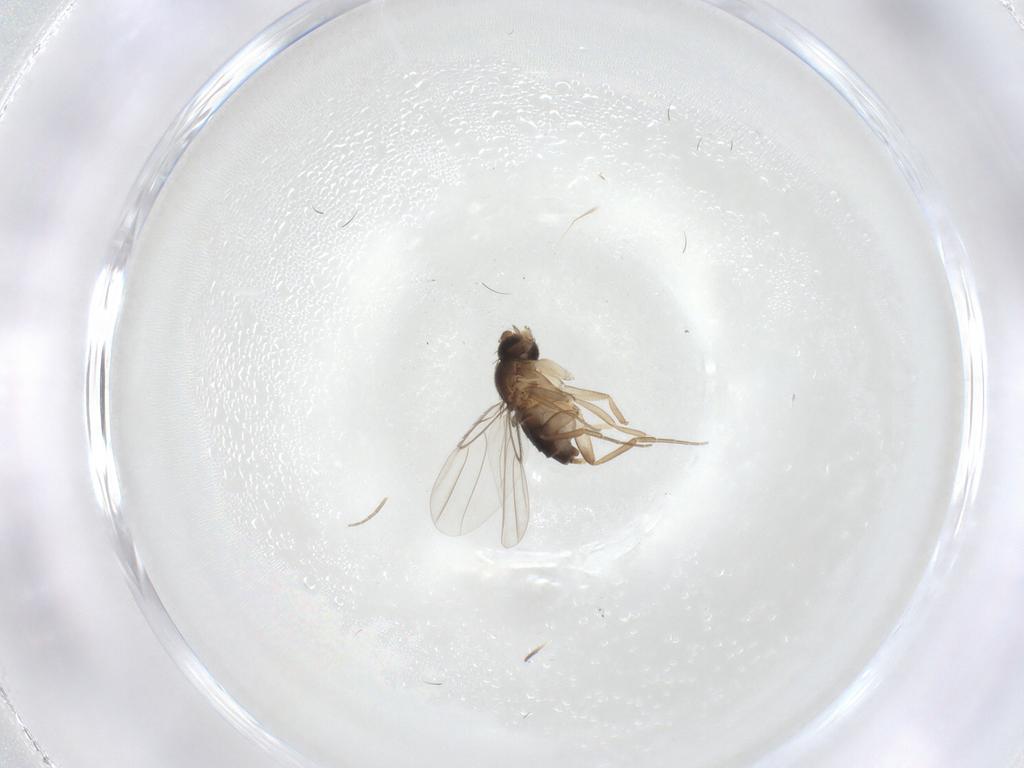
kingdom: Animalia
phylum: Arthropoda
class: Insecta
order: Diptera
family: Phoridae
